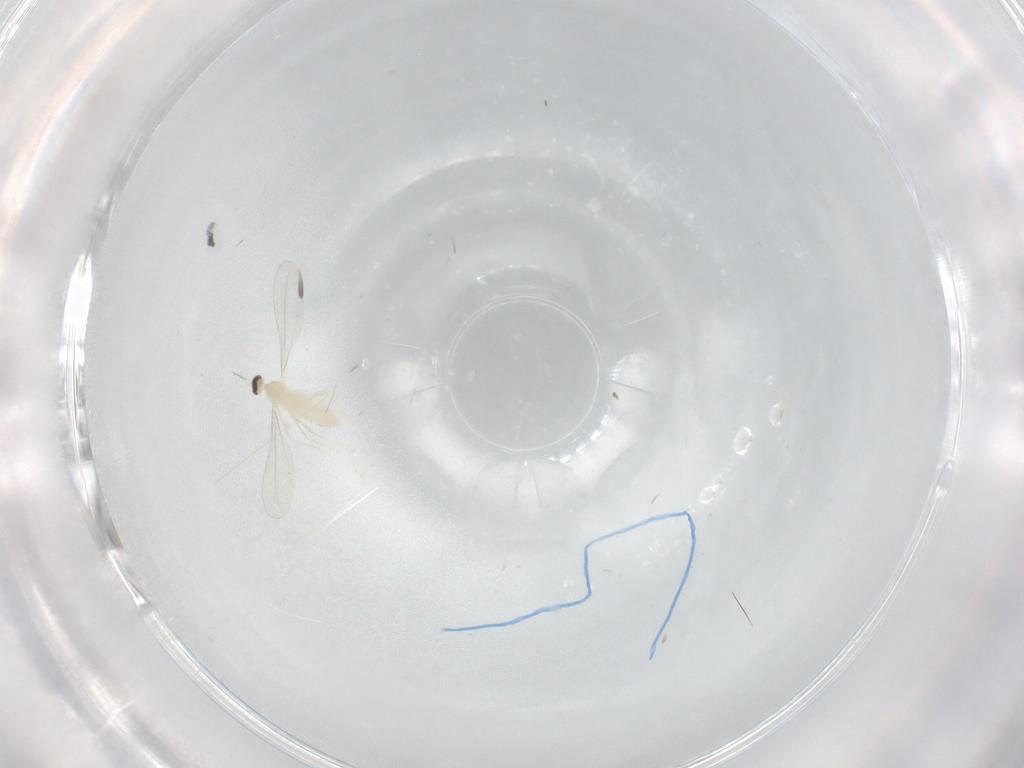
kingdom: Animalia
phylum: Arthropoda
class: Insecta
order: Diptera
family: Cecidomyiidae
